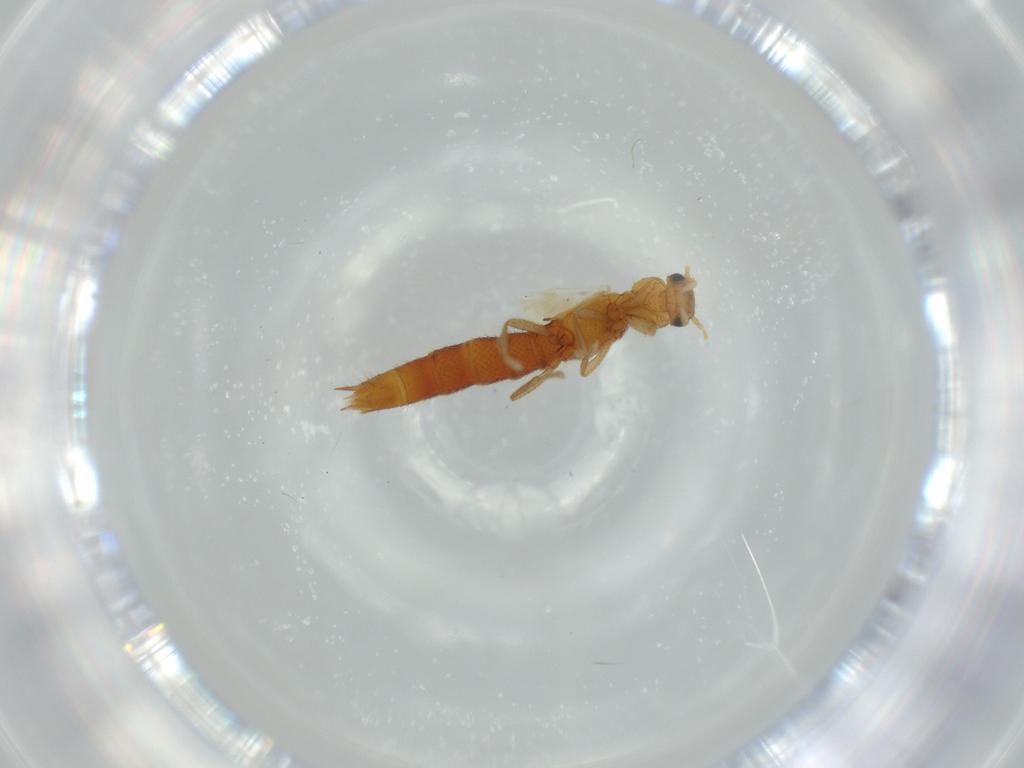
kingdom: Animalia
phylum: Arthropoda
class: Insecta
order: Coleoptera
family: Staphylinidae
